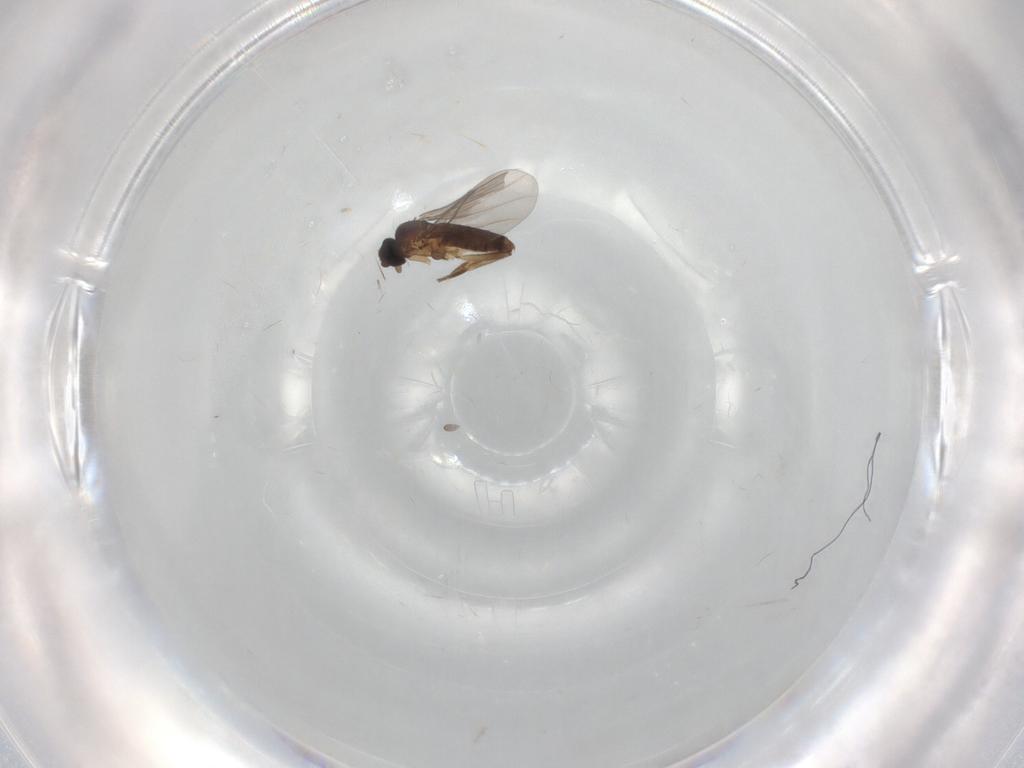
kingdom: Animalia
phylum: Arthropoda
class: Insecta
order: Diptera
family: Phoridae
